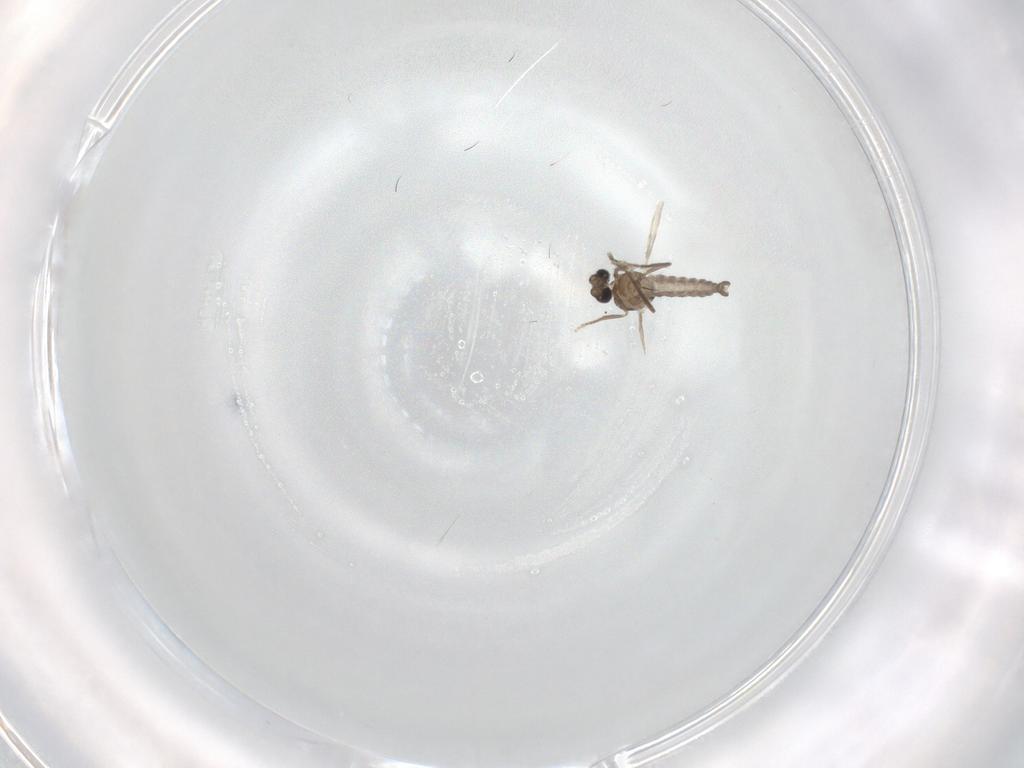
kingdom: Animalia
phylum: Arthropoda
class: Insecta
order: Diptera
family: Ceratopogonidae
